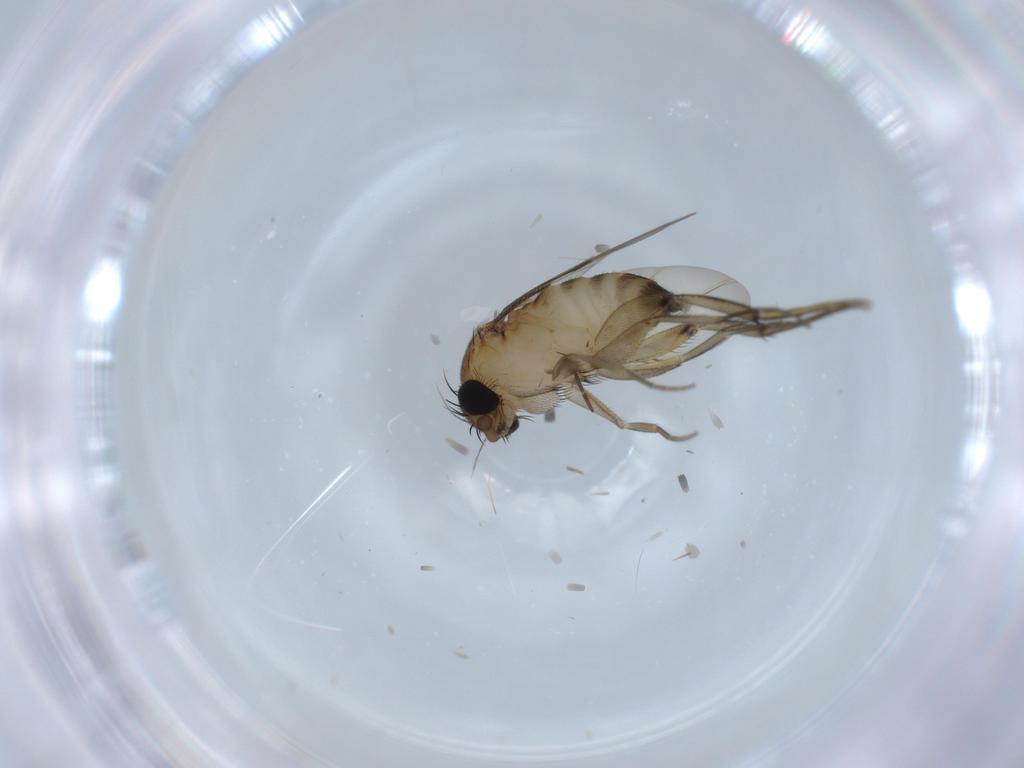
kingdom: Animalia
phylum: Arthropoda
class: Insecta
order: Diptera
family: Phoridae
